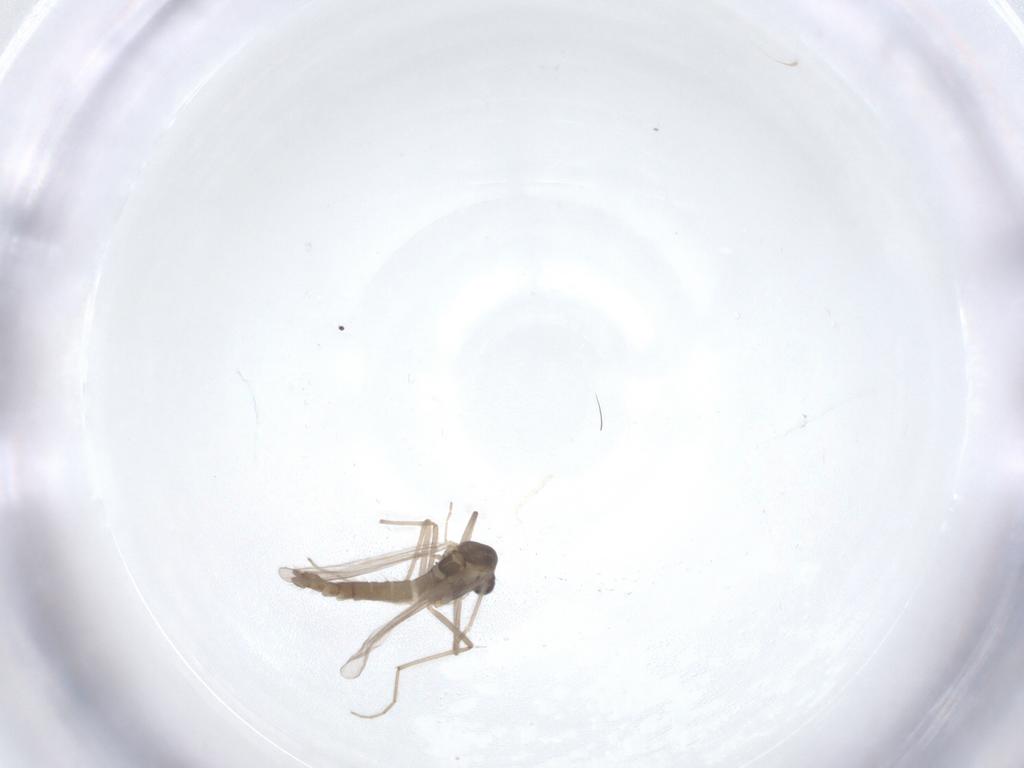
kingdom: Animalia
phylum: Arthropoda
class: Insecta
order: Diptera
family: Chironomidae
